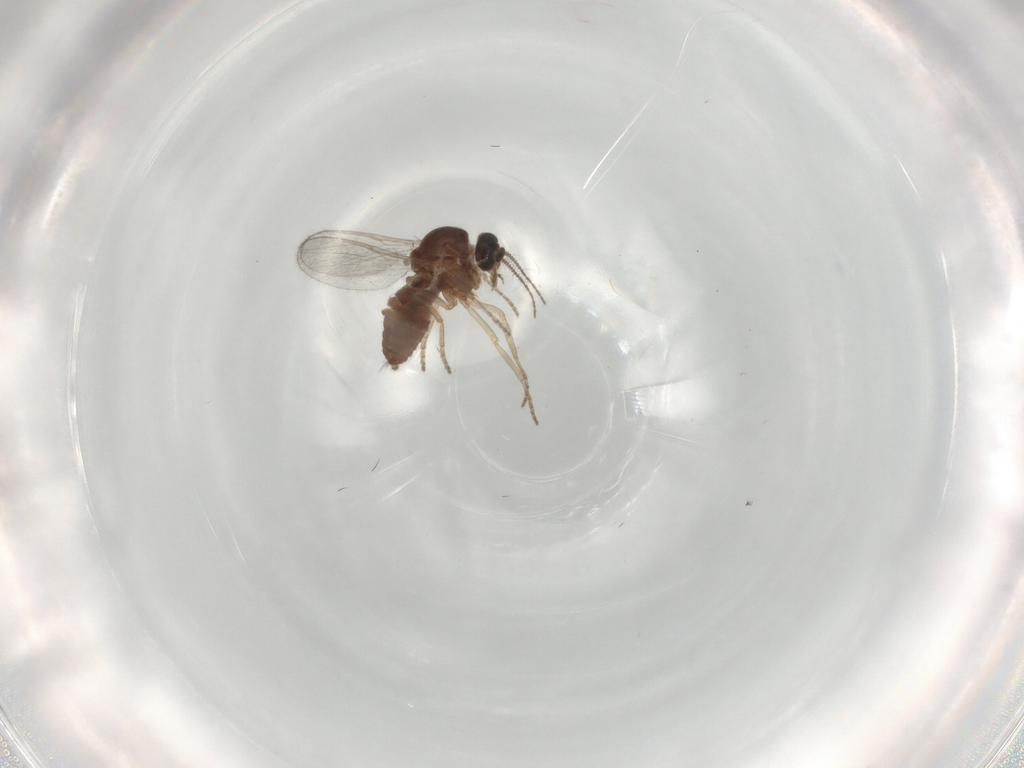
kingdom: Animalia
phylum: Arthropoda
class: Insecta
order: Diptera
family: Ceratopogonidae
